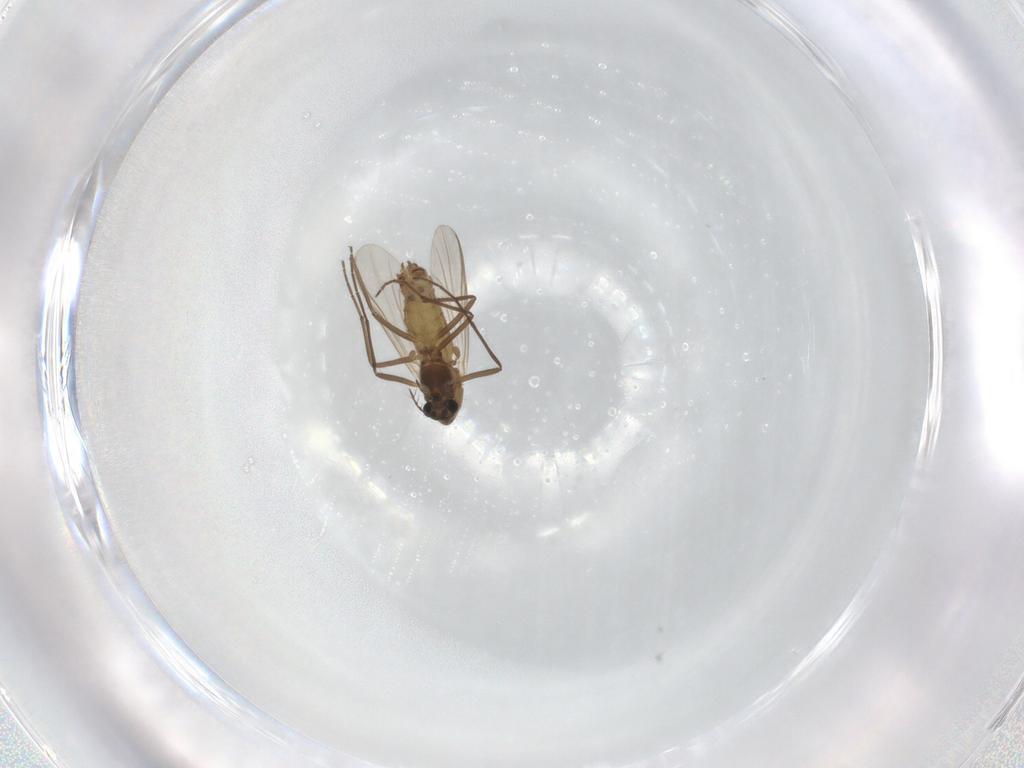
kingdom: Animalia
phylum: Arthropoda
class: Insecta
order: Diptera
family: Chironomidae
